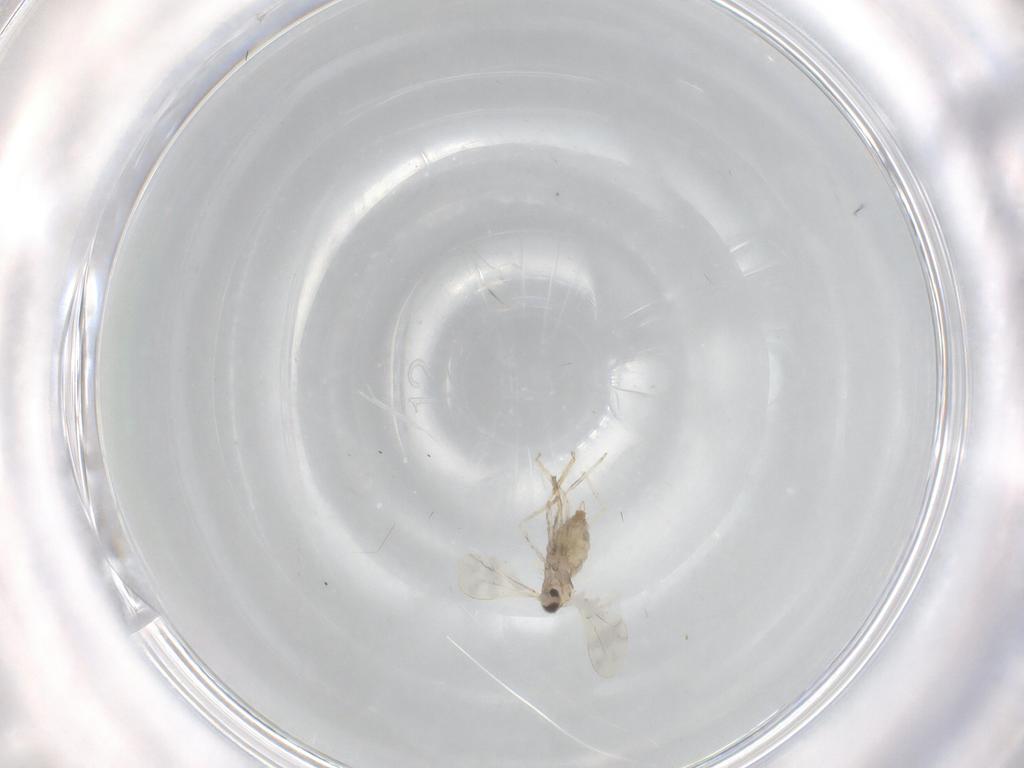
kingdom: Animalia
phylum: Arthropoda
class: Insecta
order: Diptera
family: Cecidomyiidae
